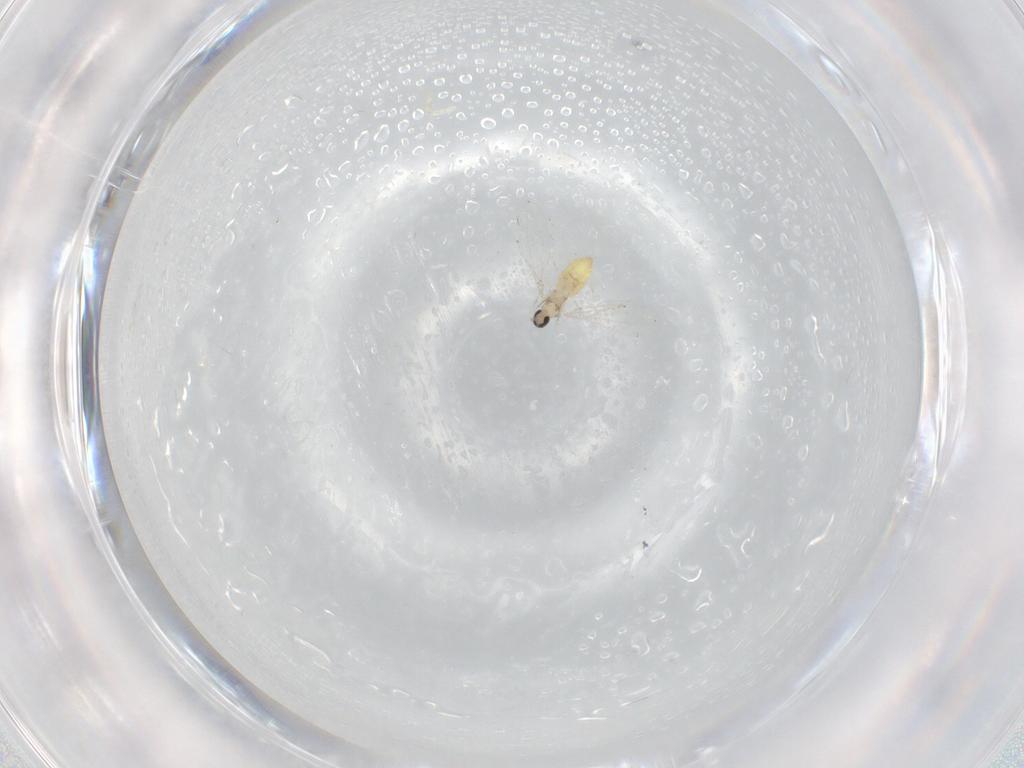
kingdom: Animalia
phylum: Arthropoda
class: Insecta
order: Diptera
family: Cecidomyiidae
